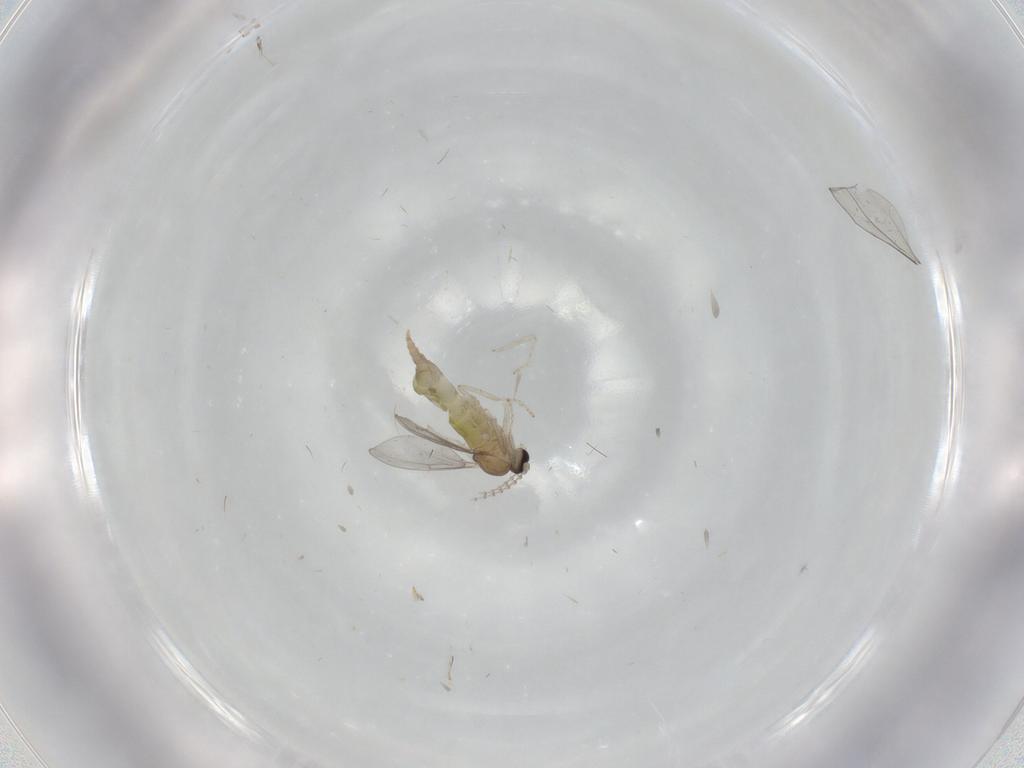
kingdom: Animalia
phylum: Arthropoda
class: Insecta
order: Diptera
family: Cecidomyiidae
